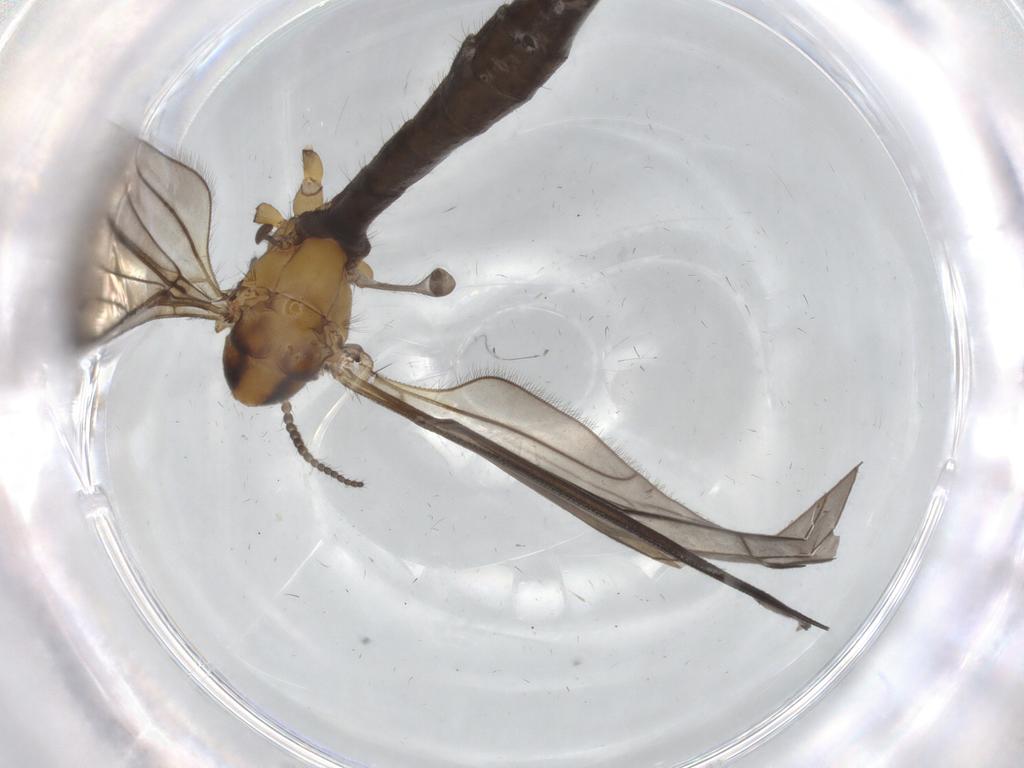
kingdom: Animalia
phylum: Arthropoda
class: Insecta
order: Diptera
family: Limoniidae
